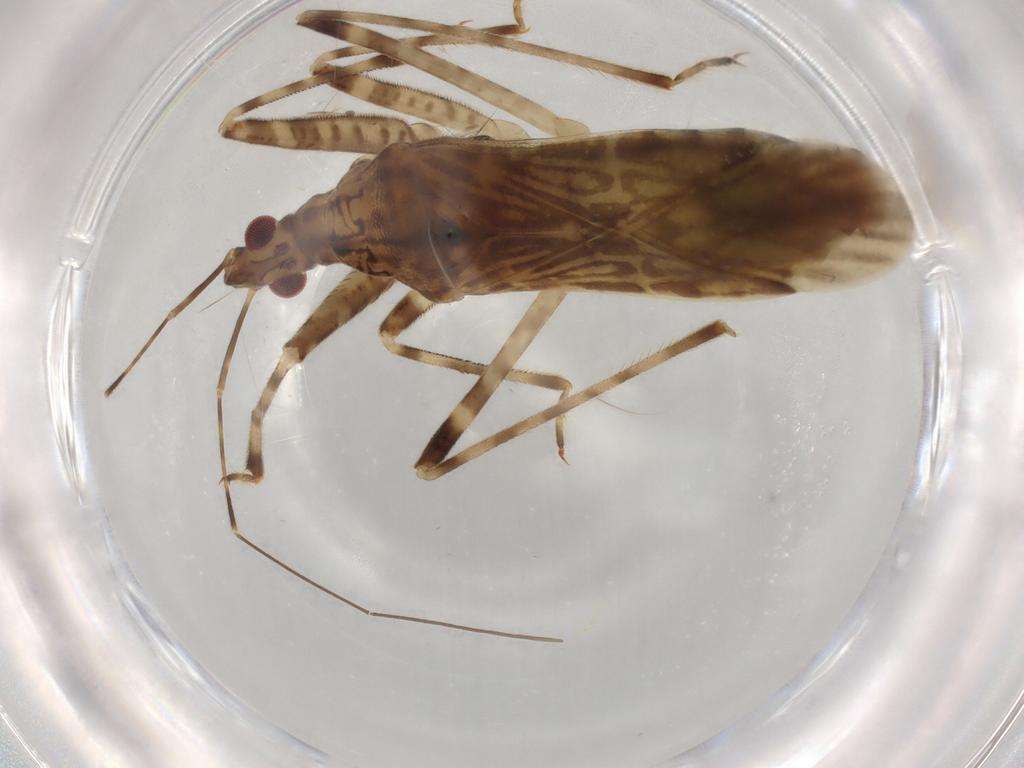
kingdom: Animalia
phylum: Arthropoda
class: Insecta
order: Hemiptera
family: Nabidae
